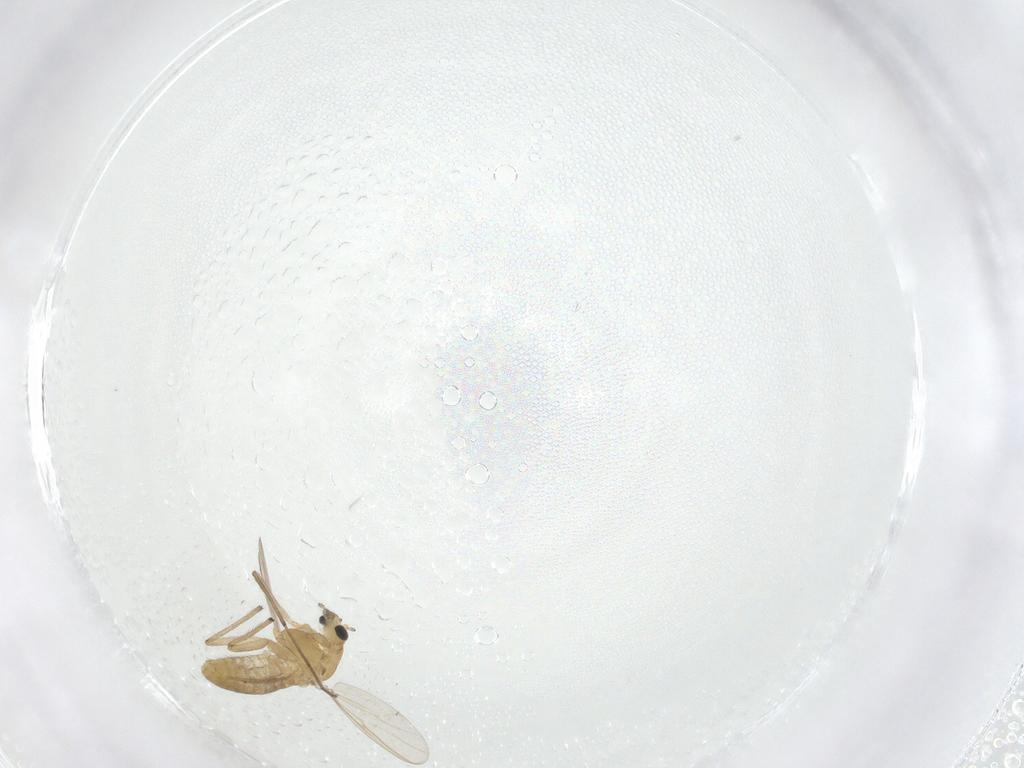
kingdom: Animalia
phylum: Arthropoda
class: Insecta
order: Diptera
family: Chironomidae
